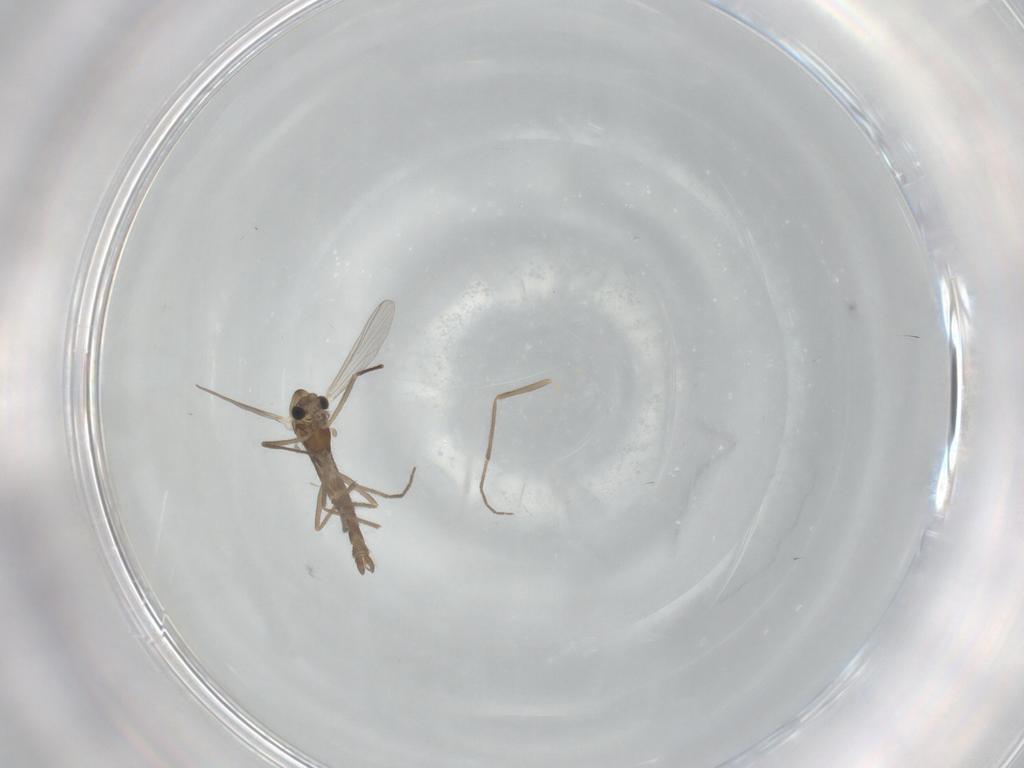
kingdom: Animalia
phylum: Arthropoda
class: Insecta
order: Diptera
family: Chironomidae
